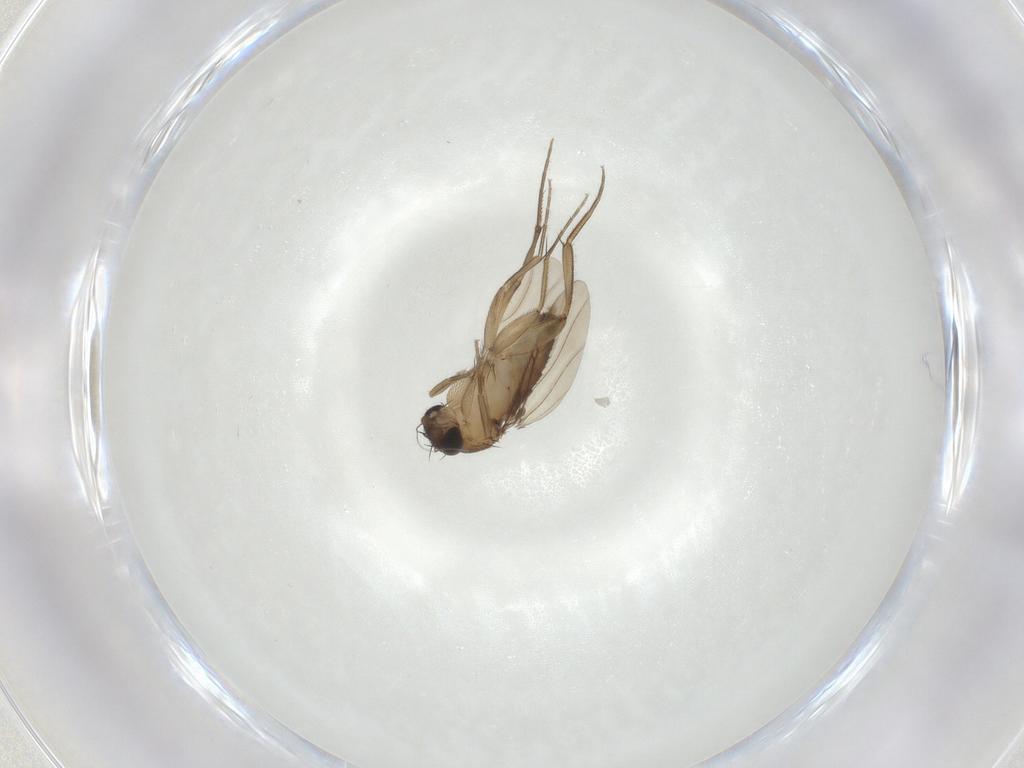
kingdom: Animalia
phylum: Arthropoda
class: Insecta
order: Diptera
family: Phoridae
